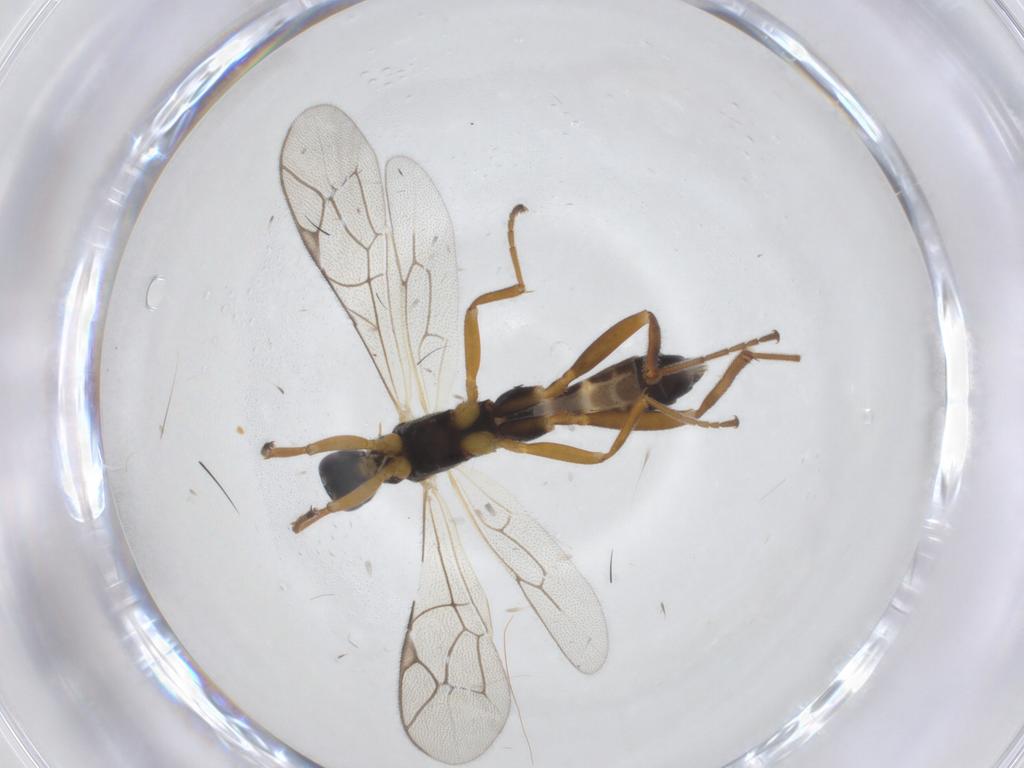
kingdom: Animalia
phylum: Arthropoda
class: Insecta
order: Hymenoptera
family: Ichneumonidae
